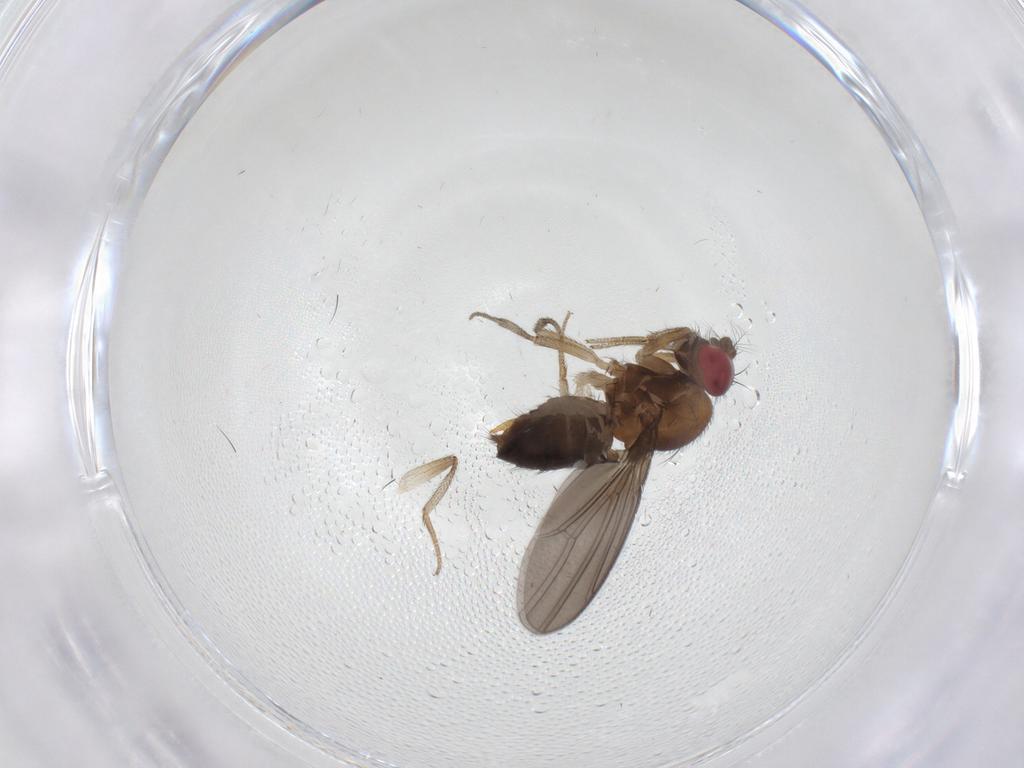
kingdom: Animalia
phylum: Arthropoda
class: Insecta
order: Diptera
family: Drosophilidae
